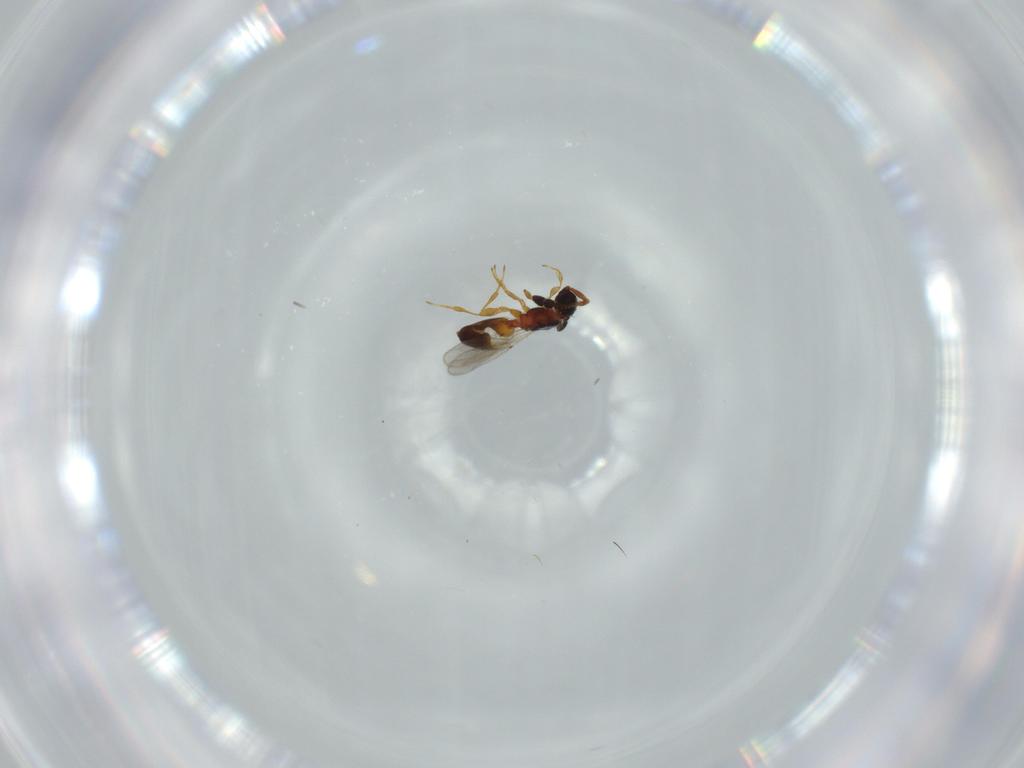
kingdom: Animalia
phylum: Arthropoda
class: Insecta
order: Hymenoptera
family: Diapriidae
